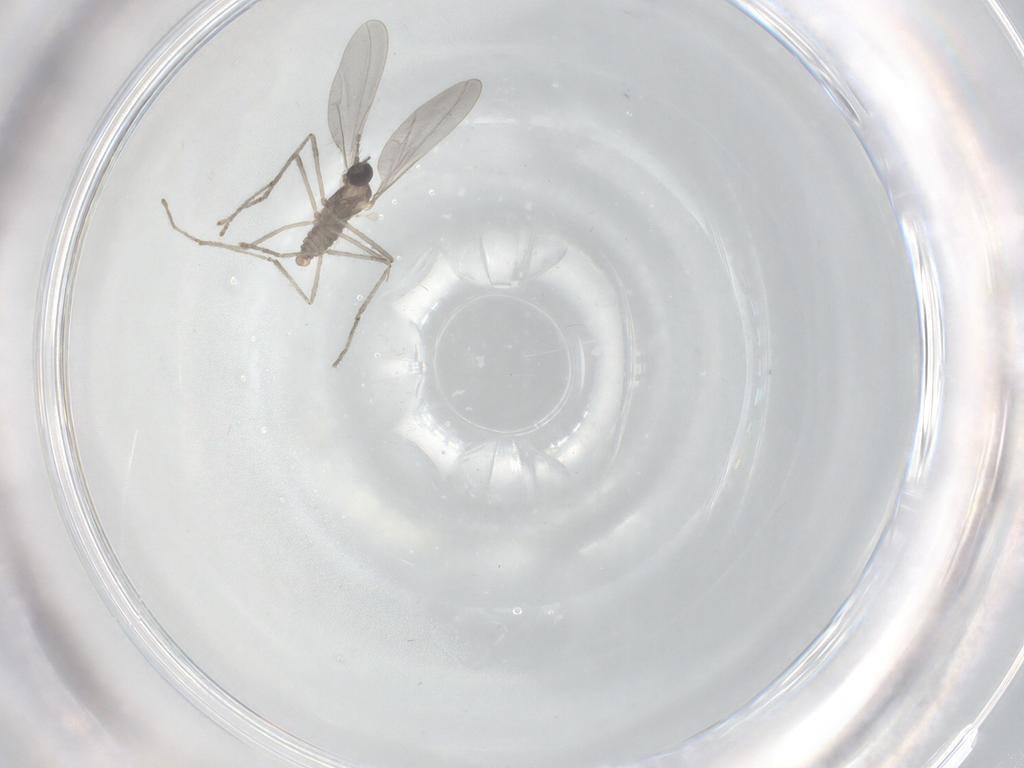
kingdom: Animalia
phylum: Arthropoda
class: Insecta
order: Diptera
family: Cecidomyiidae
